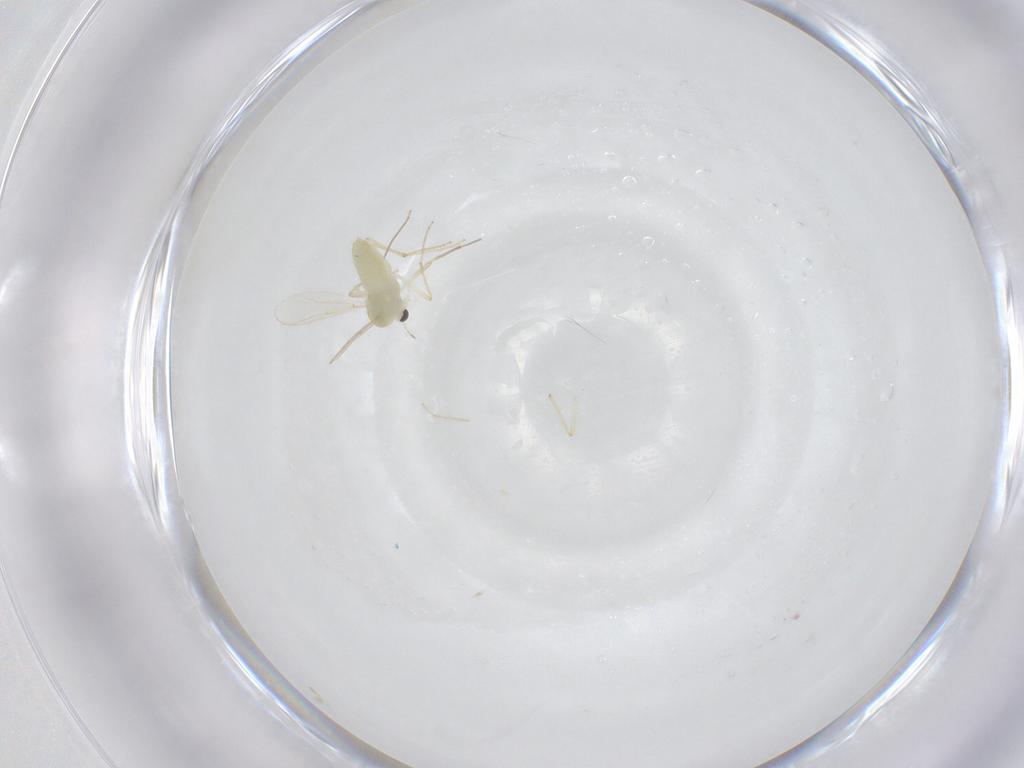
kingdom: Animalia
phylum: Arthropoda
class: Insecta
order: Diptera
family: Chironomidae
